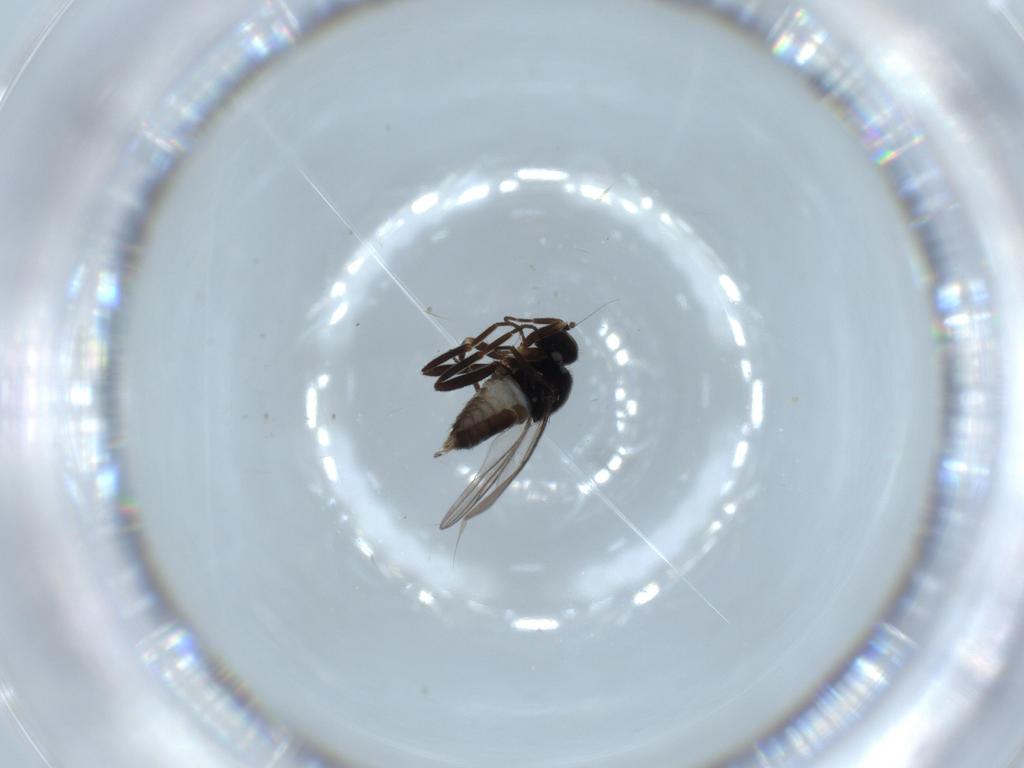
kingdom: Animalia
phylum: Arthropoda
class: Insecta
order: Diptera
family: Hybotidae
